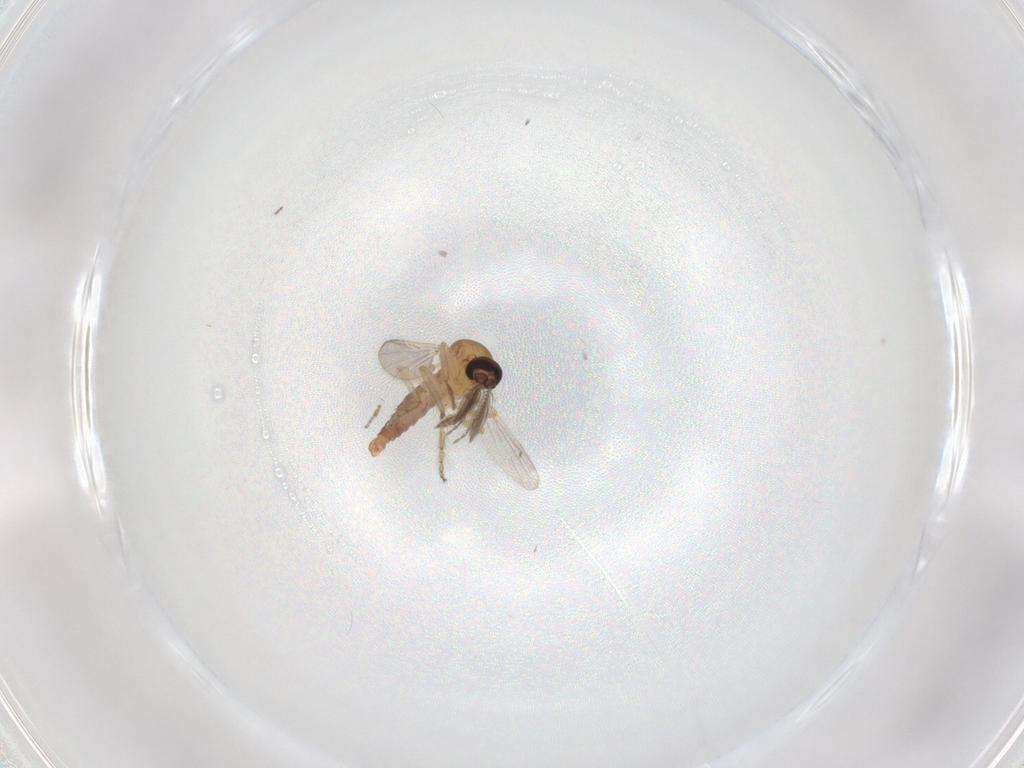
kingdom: Animalia
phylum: Arthropoda
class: Insecta
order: Diptera
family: Ceratopogonidae
